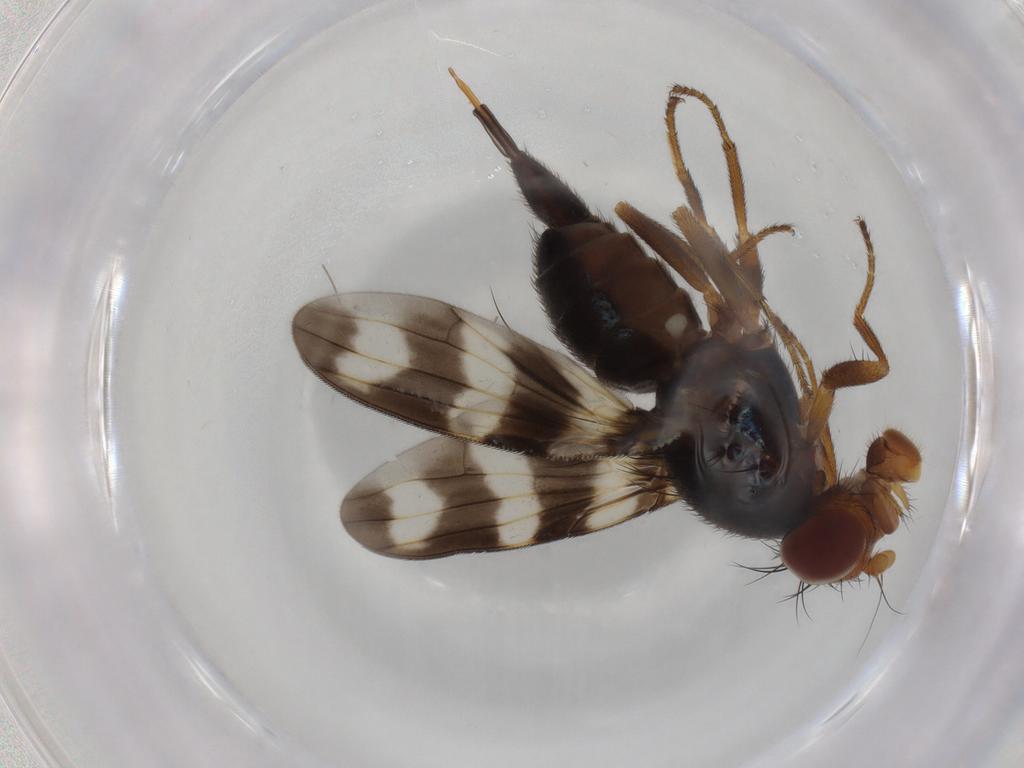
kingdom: Animalia
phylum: Arthropoda
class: Insecta
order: Diptera
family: Ulidiidae
